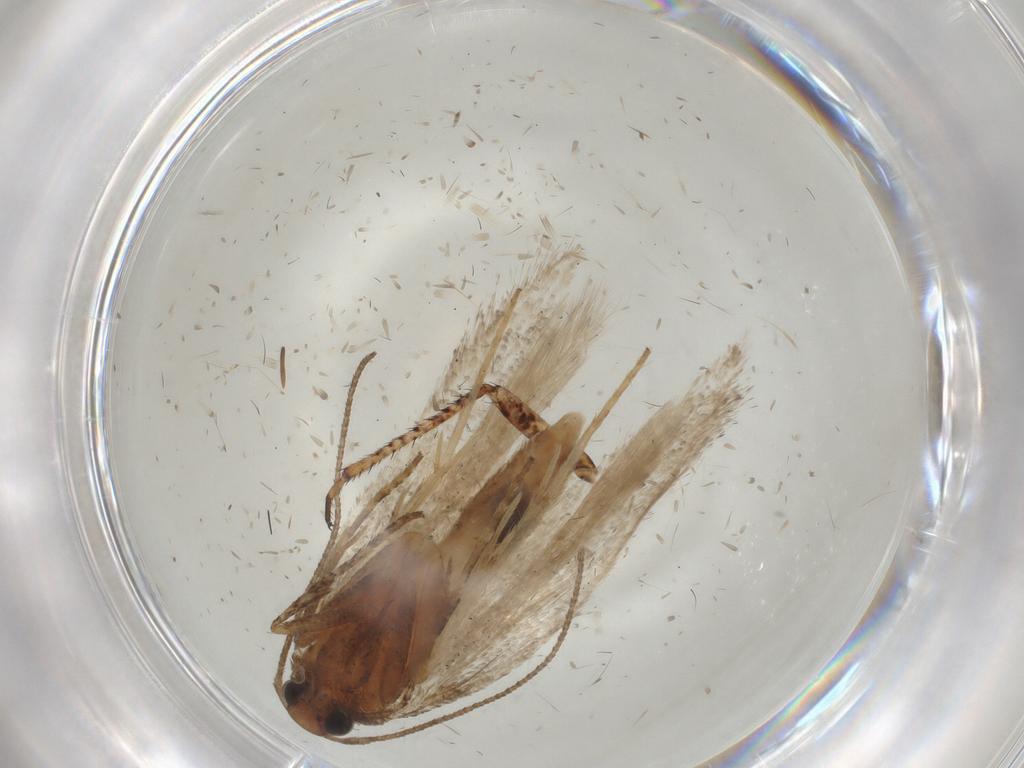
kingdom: Animalia
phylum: Arthropoda
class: Insecta
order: Lepidoptera
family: Crambidae
